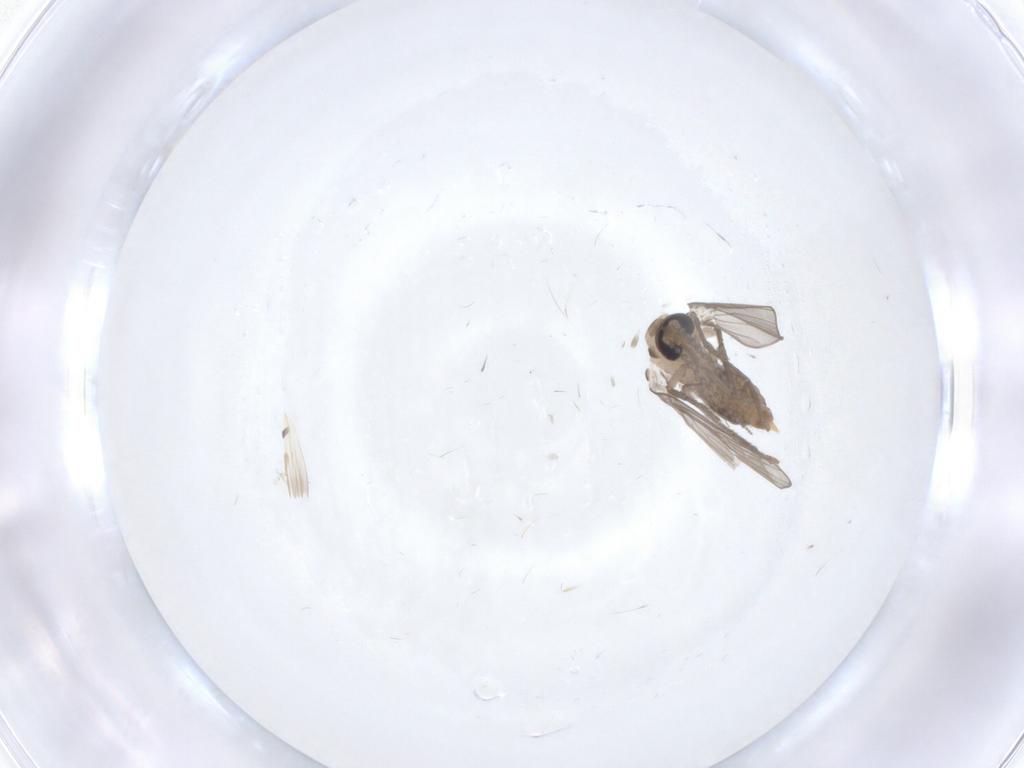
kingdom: Animalia
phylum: Arthropoda
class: Insecta
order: Diptera
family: Psychodidae
